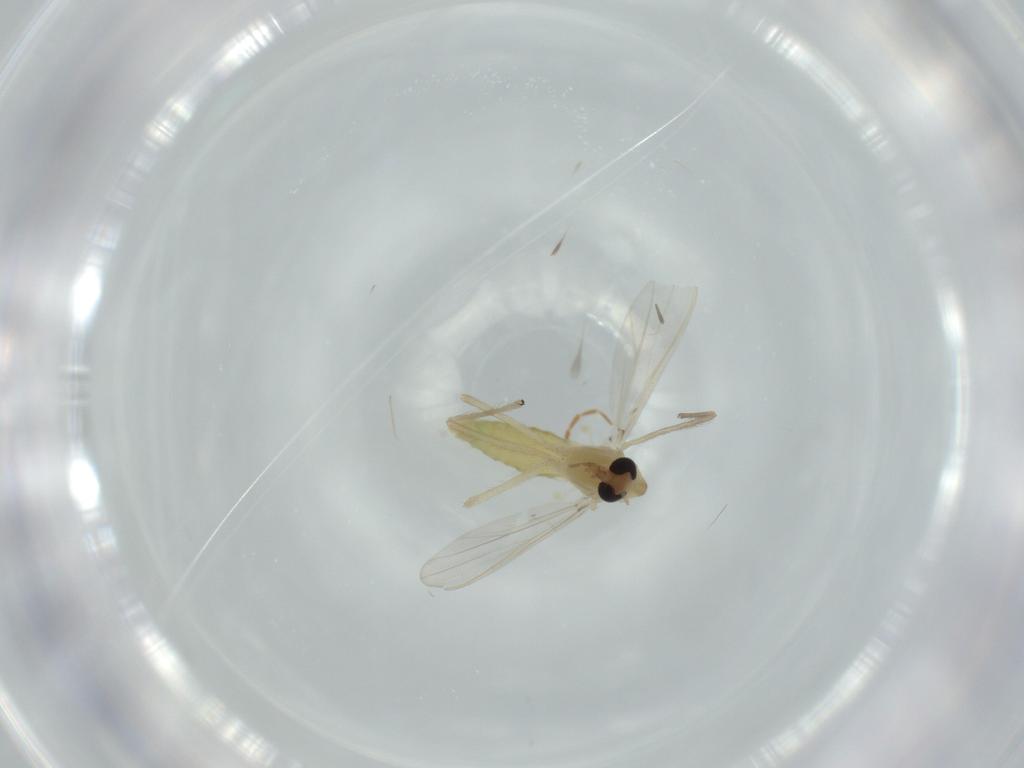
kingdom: Animalia
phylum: Arthropoda
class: Insecta
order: Diptera
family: Chironomidae
